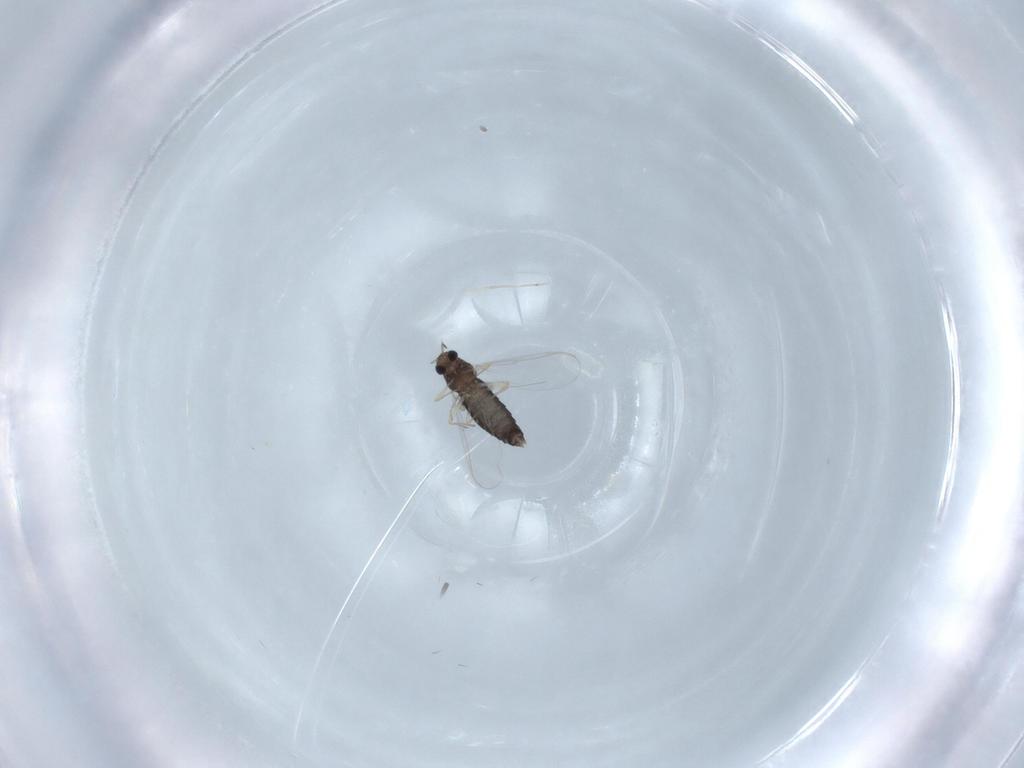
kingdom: Animalia
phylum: Arthropoda
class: Insecta
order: Diptera
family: Chironomidae
